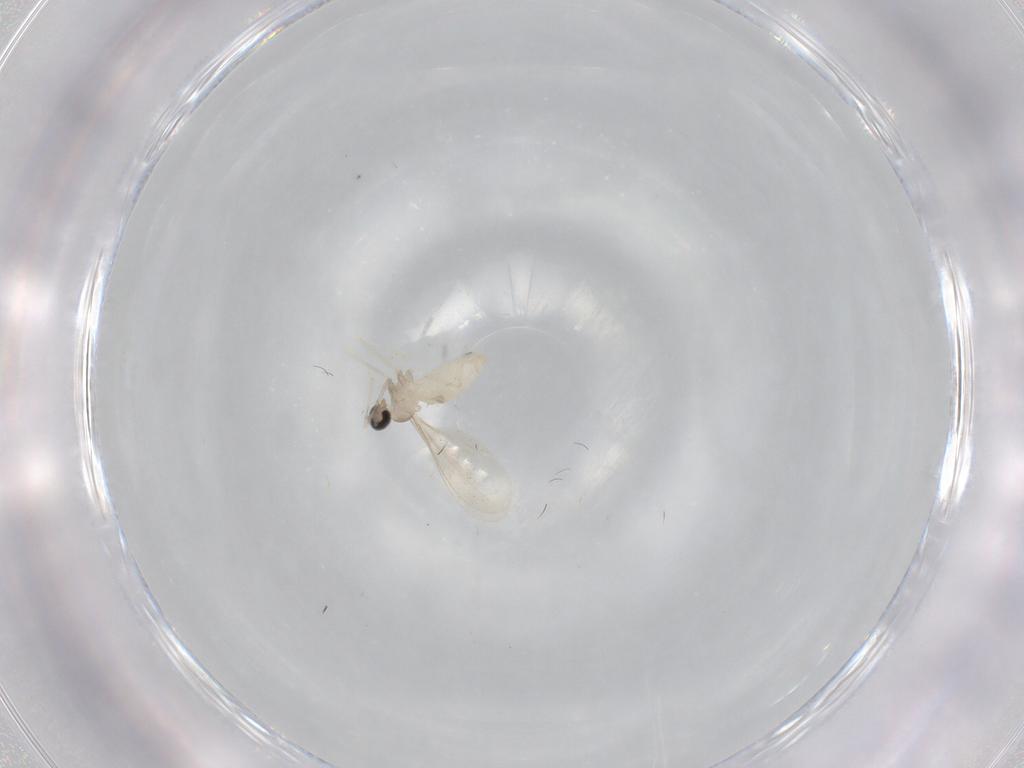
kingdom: Animalia
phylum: Arthropoda
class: Insecta
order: Diptera
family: Cecidomyiidae
